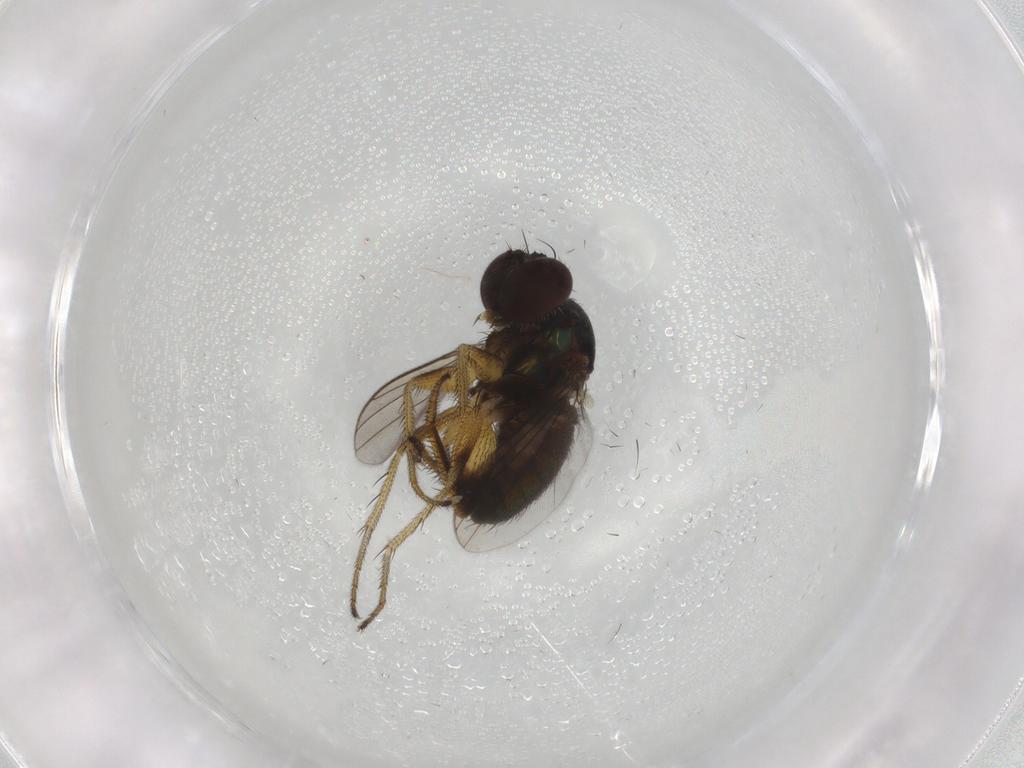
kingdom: Animalia
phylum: Arthropoda
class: Insecta
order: Diptera
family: Dolichopodidae
